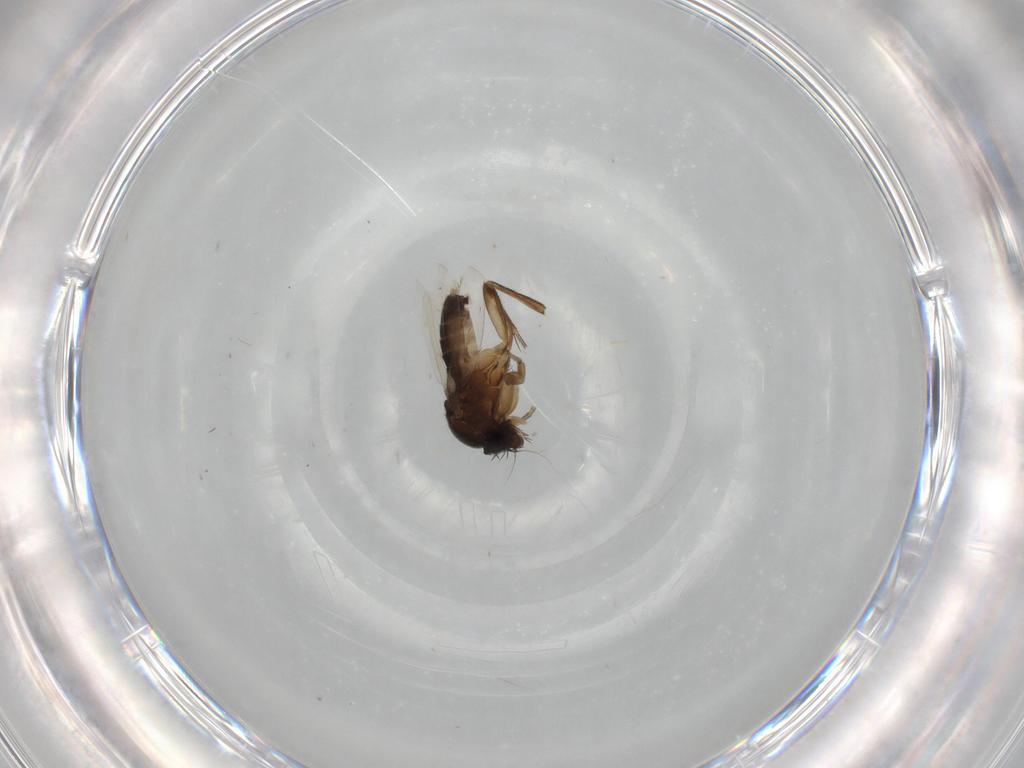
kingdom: Animalia
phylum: Arthropoda
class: Insecta
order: Diptera
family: Phoridae
